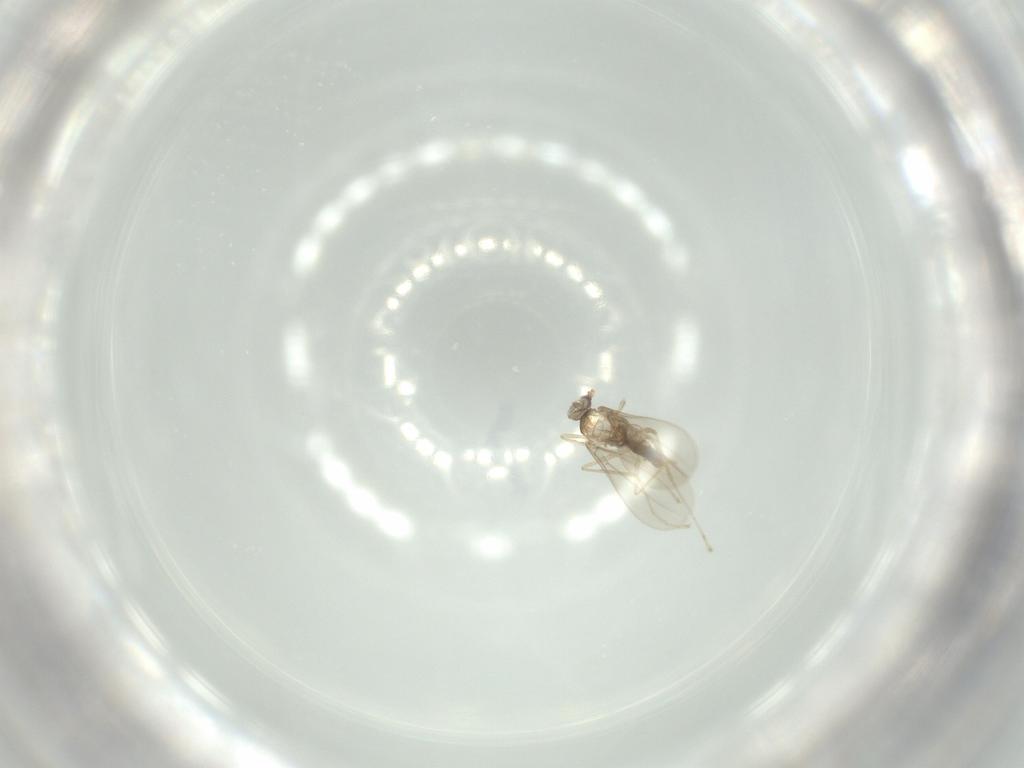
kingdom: Animalia
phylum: Arthropoda
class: Insecta
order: Diptera
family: Cecidomyiidae
